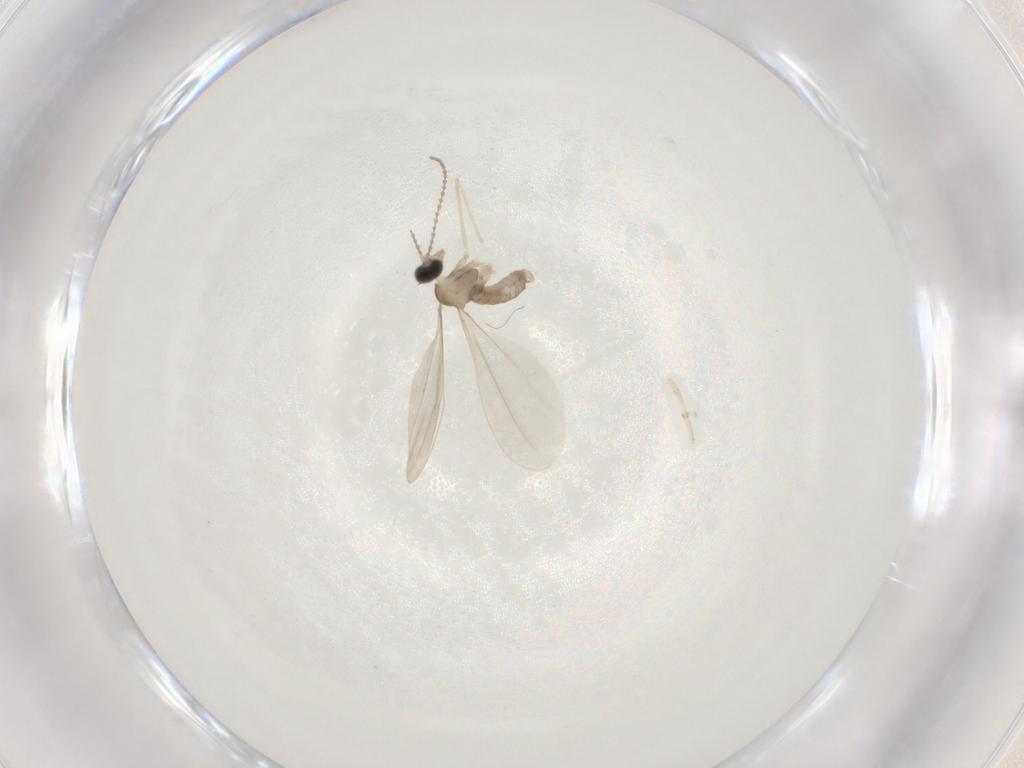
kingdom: Animalia
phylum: Arthropoda
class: Insecta
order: Diptera
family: Cecidomyiidae
